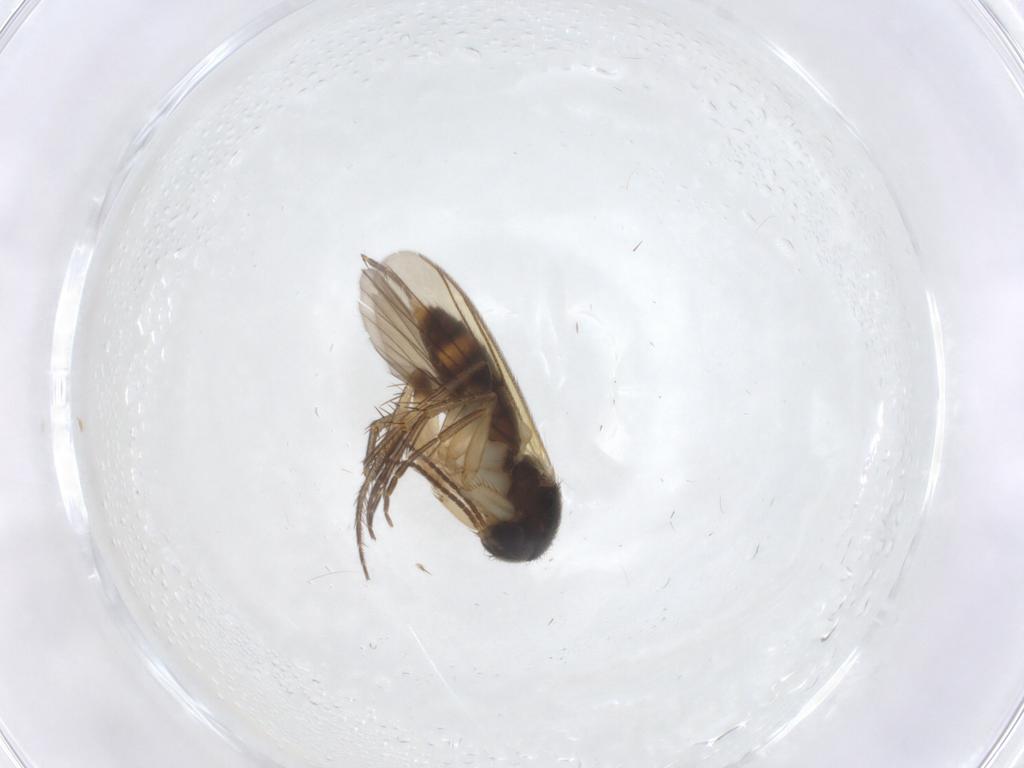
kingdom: Animalia
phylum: Arthropoda
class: Insecta
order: Diptera
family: Mycetophilidae
